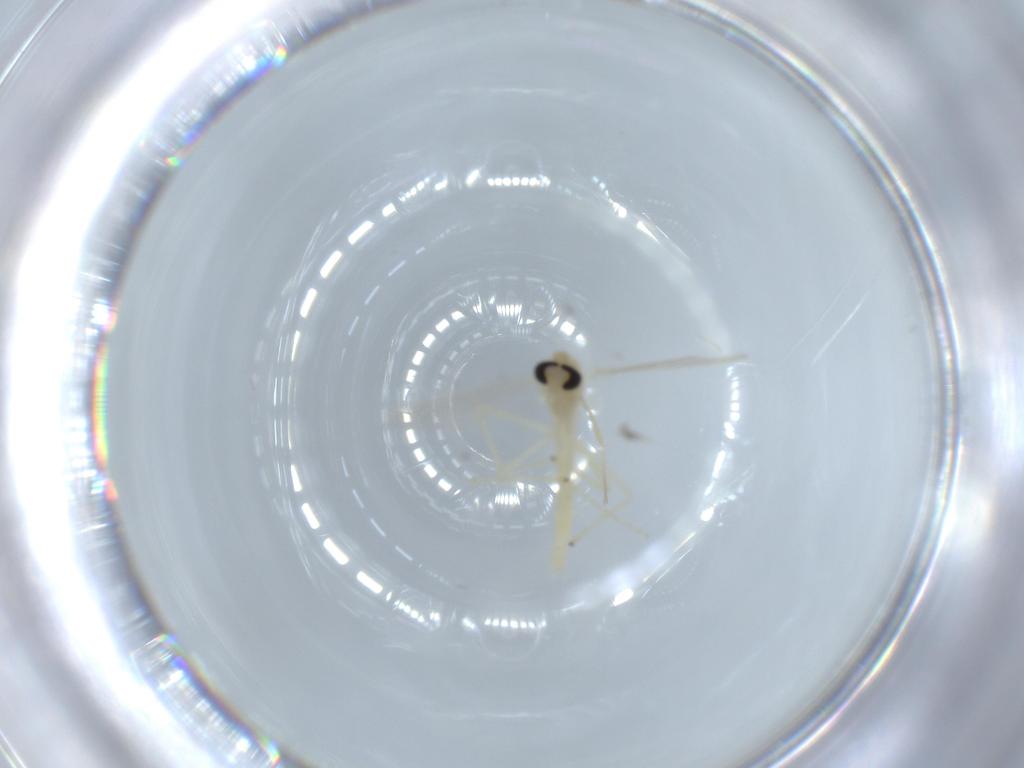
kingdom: Animalia
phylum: Arthropoda
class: Insecta
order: Diptera
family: Chironomidae
